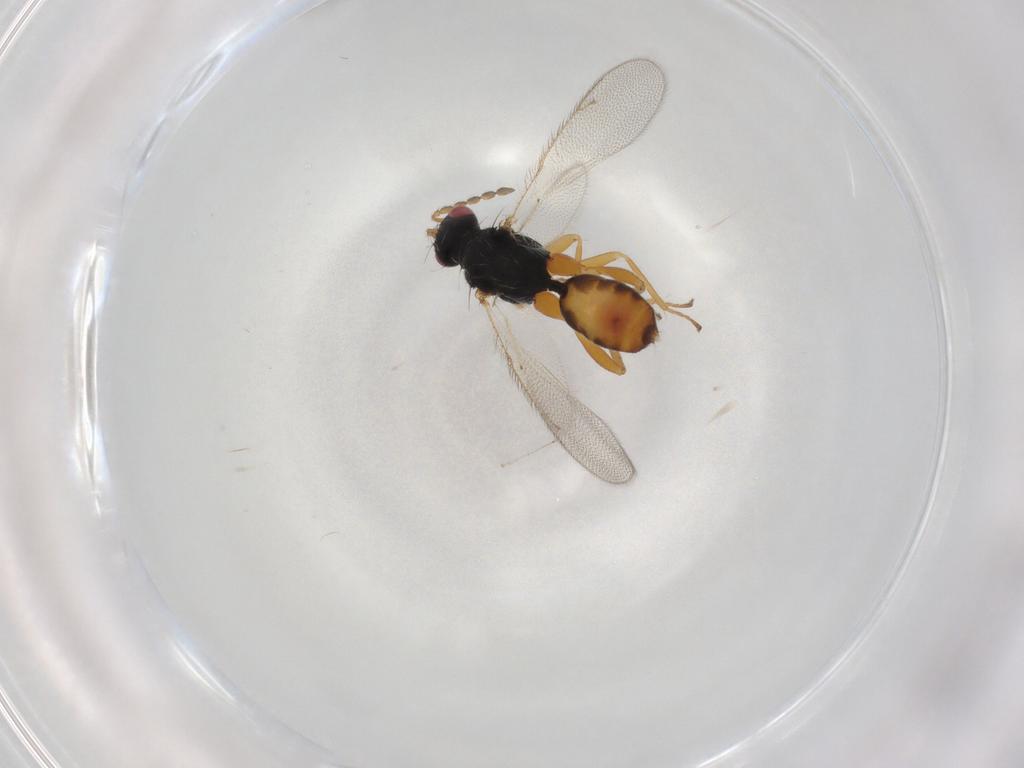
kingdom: Animalia
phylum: Arthropoda
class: Insecta
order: Hymenoptera
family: Eulophidae
